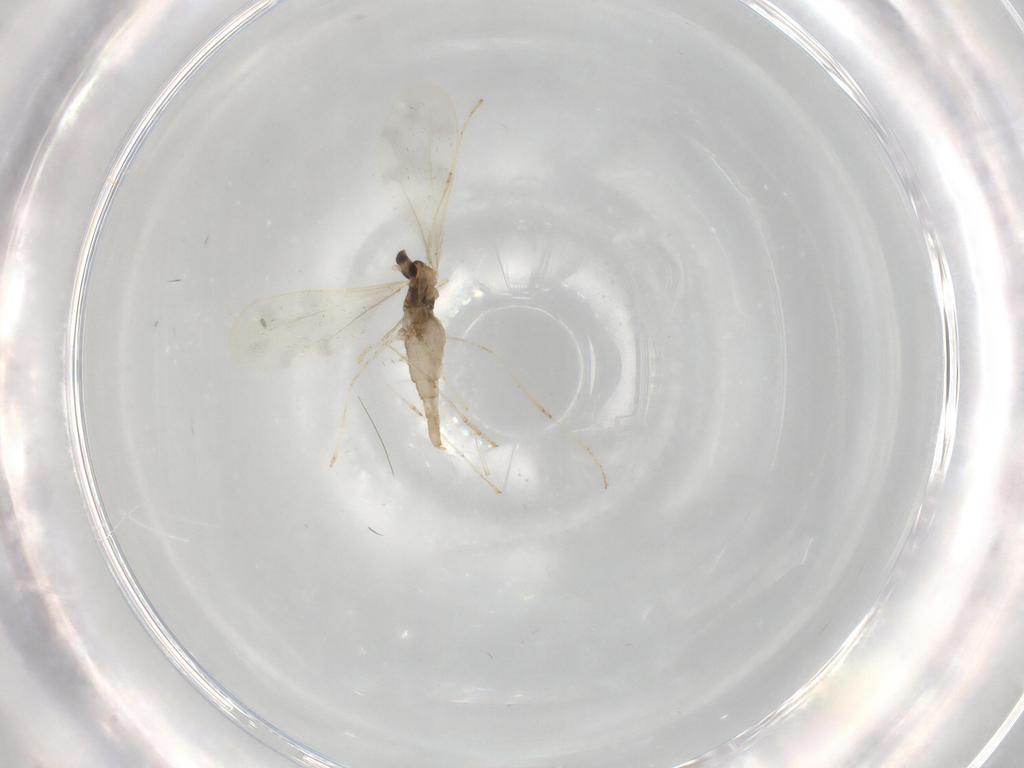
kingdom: Animalia
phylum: Arthropoda
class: Insecta
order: Diptera
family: Cecidomyiidae
